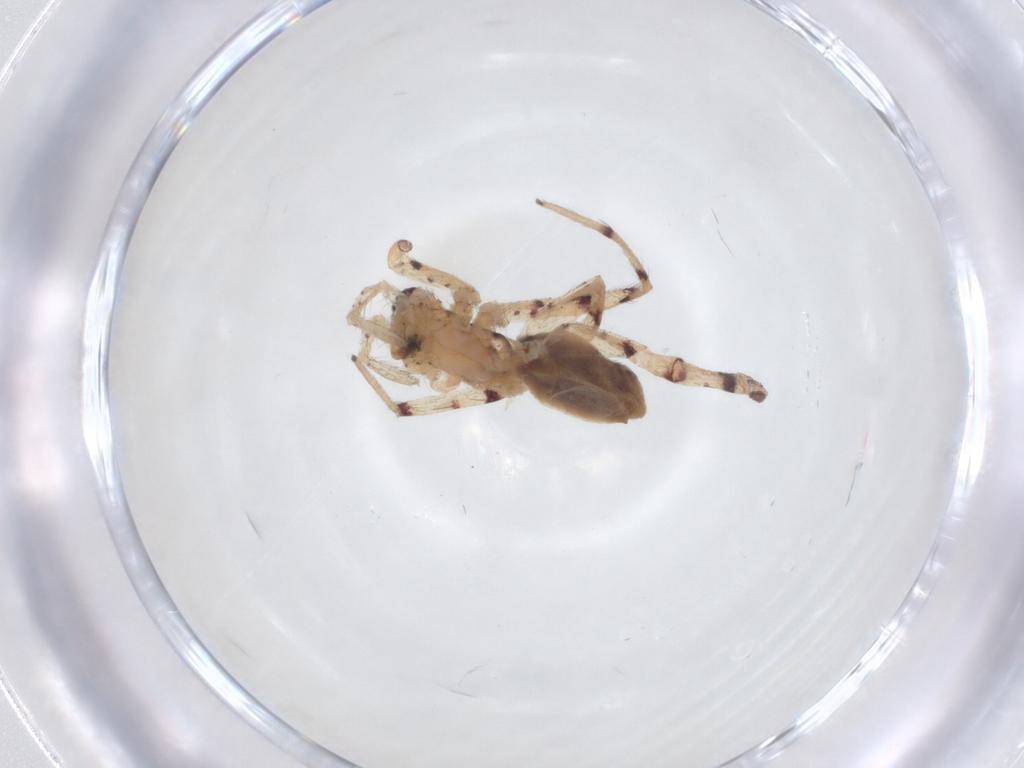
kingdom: Animalia
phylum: Arthropoda
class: Arachnida
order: Araneae
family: Corinnidae
